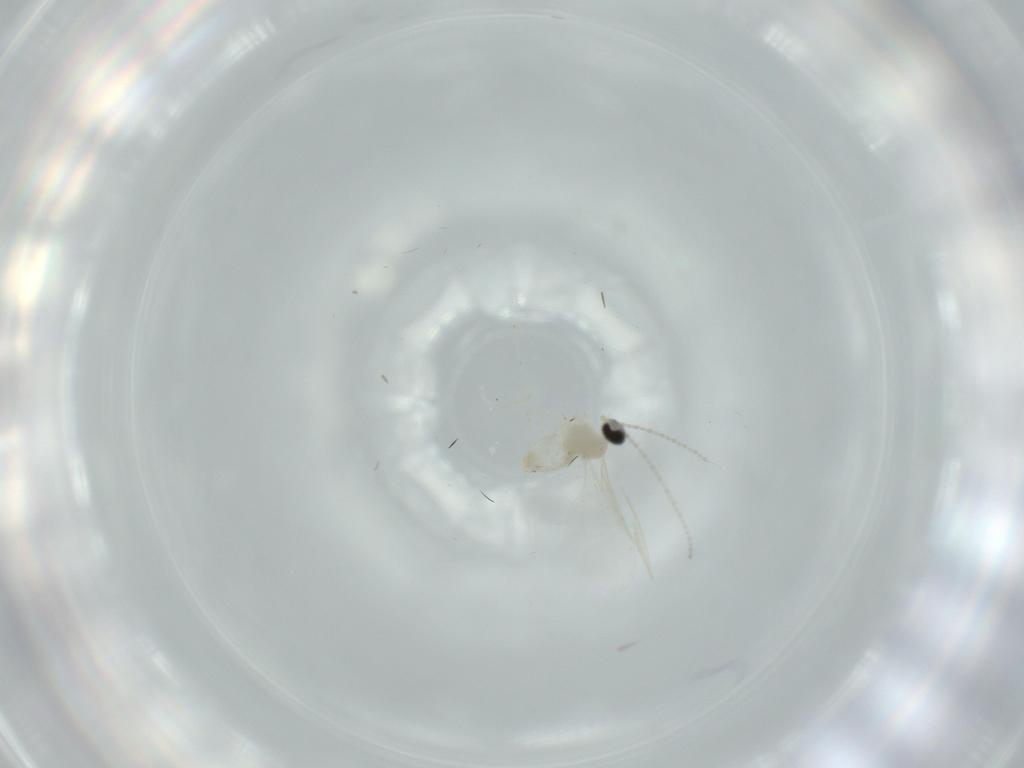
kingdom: Animalia
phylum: Arthropoda
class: Insecta
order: Diptera
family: Cecidomyiidae
